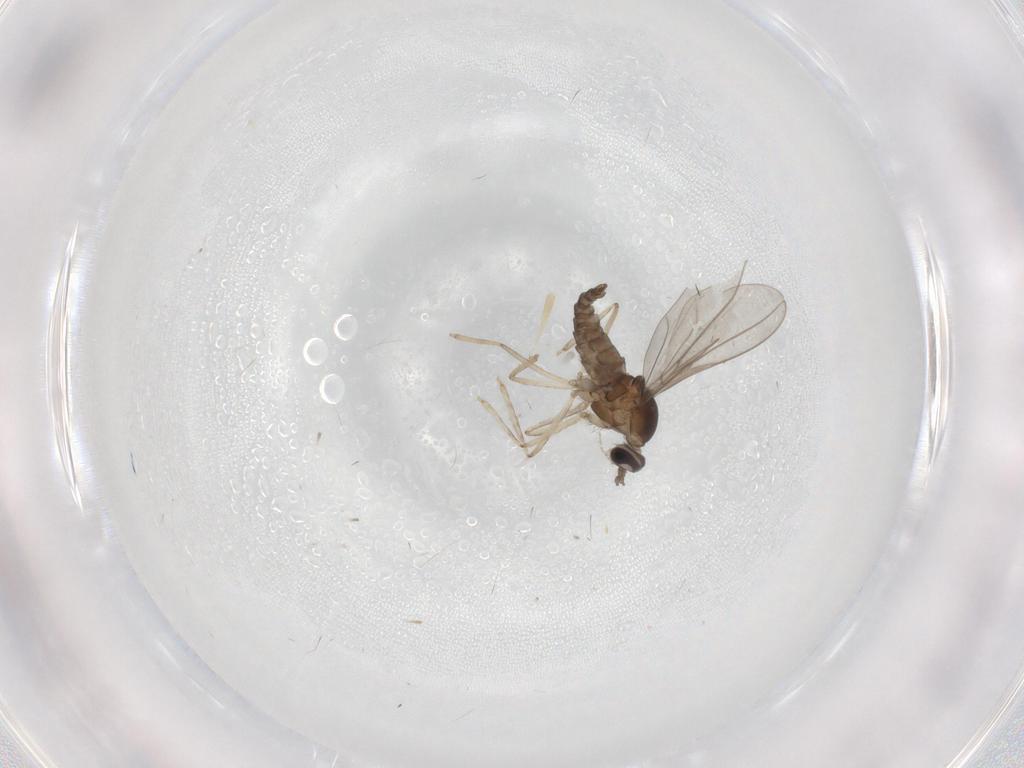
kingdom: Animalia
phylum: Arthropoda
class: Insecta
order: Diptera
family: Cecidomyiidae
